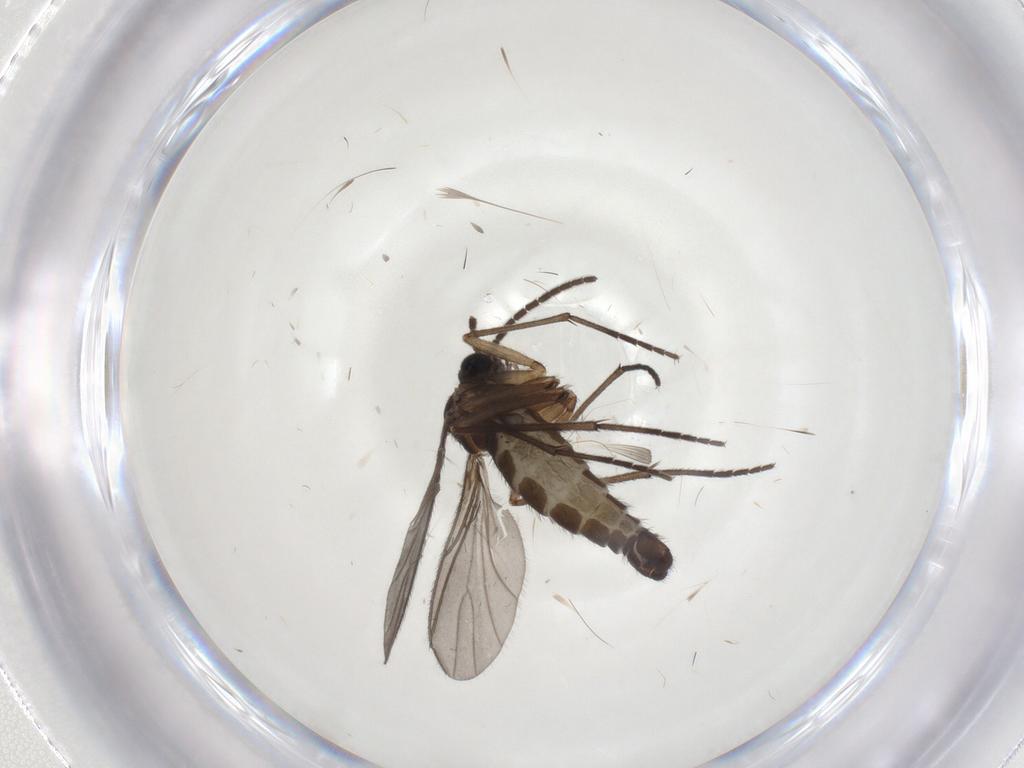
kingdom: Animalia
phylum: Arthropoda
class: Insecta
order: Diptera
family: Sciaridae
